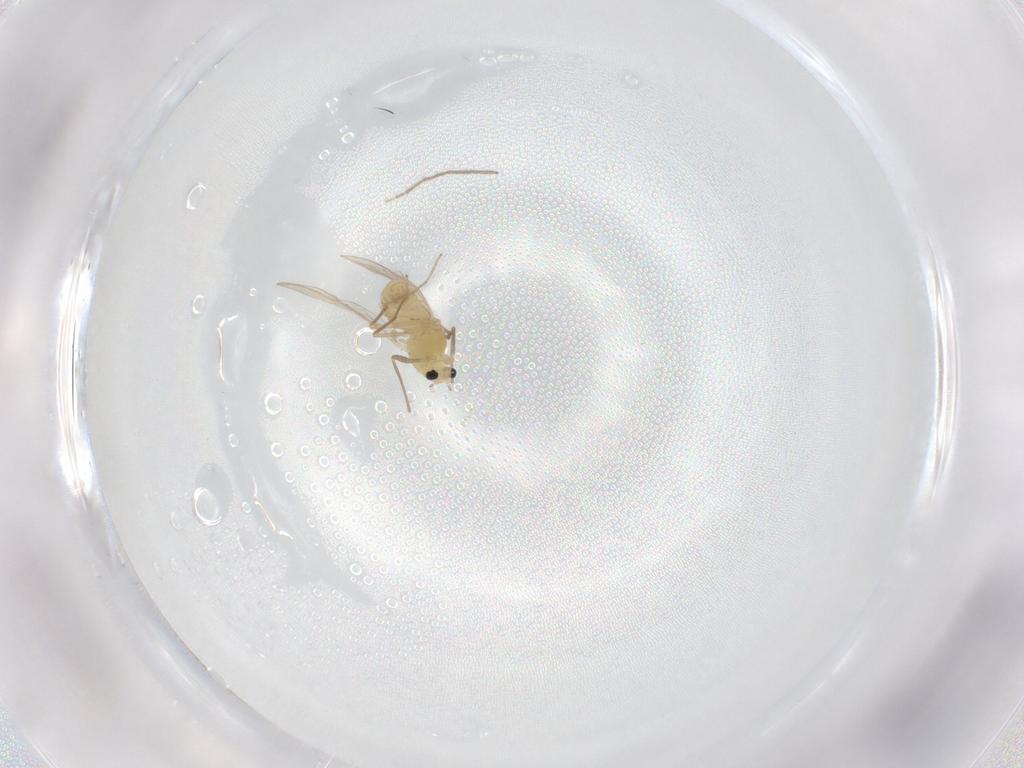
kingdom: Animalia
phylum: Arthropoda
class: Insecta
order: Diptera
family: Chironomidae
